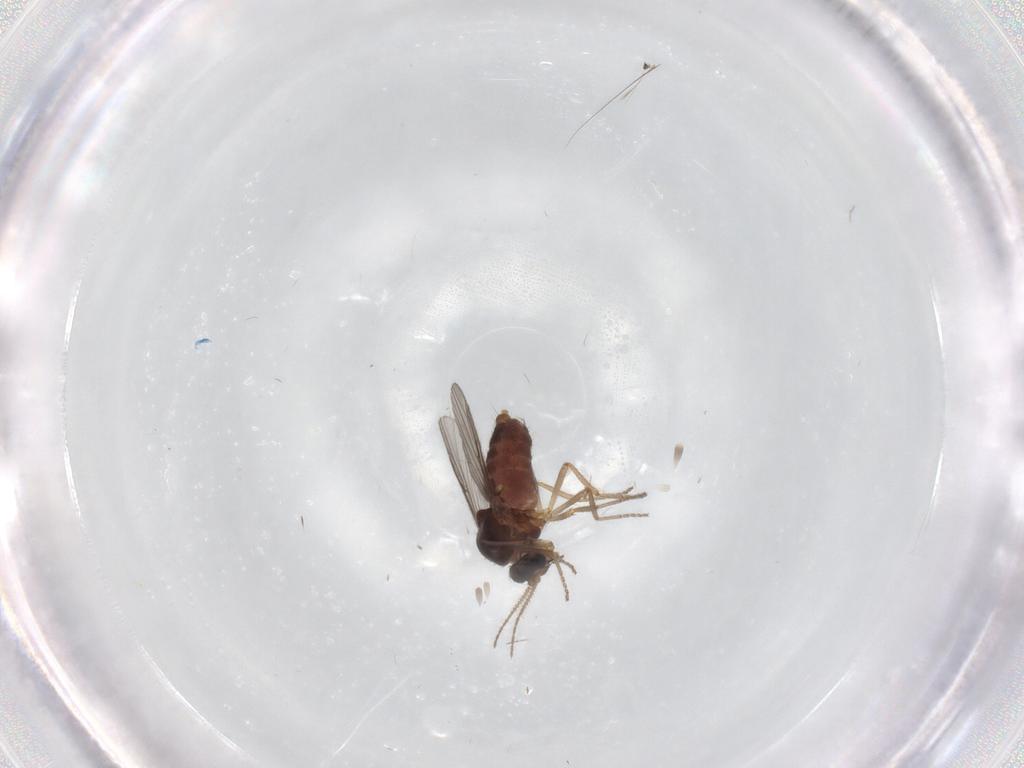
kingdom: Animalia
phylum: Arthropoda
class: Insecta
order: Diptera
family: Ceratopogonidae
